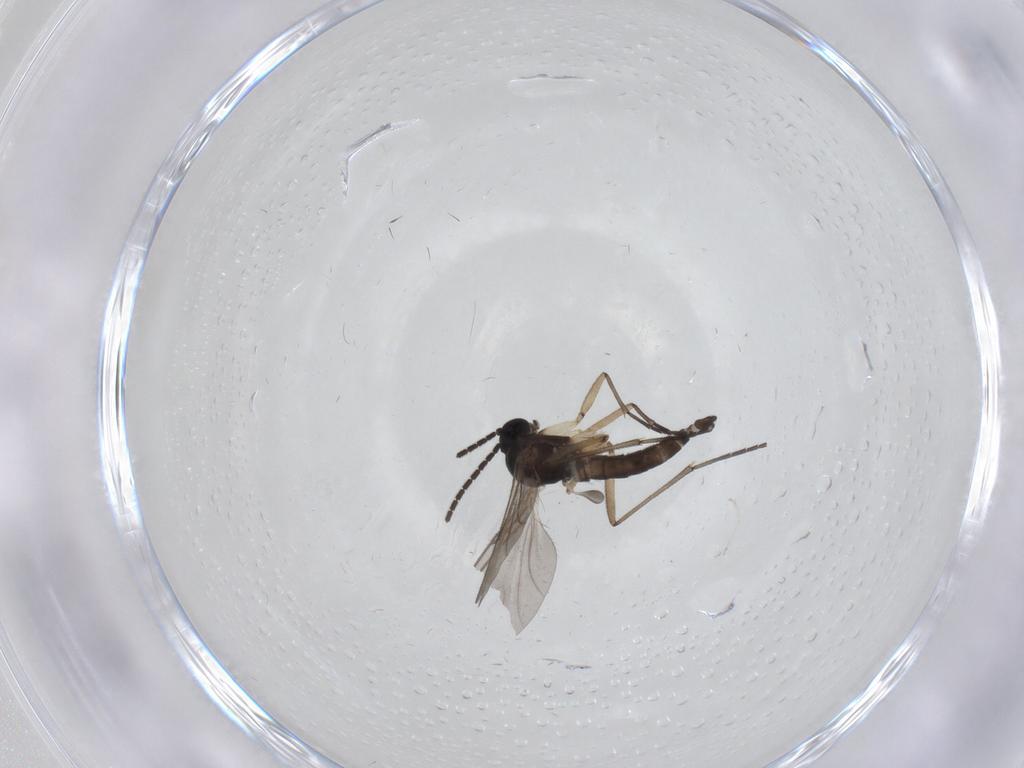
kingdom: Animalia
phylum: Arthropoda
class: Insecta
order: Diptera
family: Sciaridae
